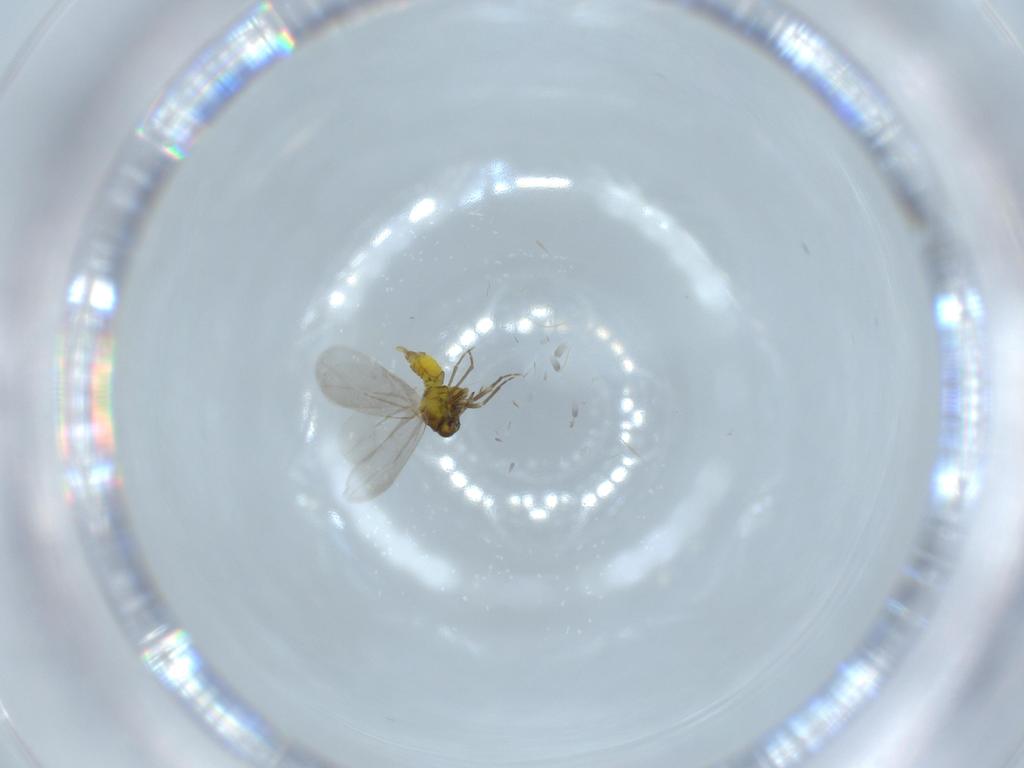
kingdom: Animalia
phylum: Arthropoda
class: Insecta
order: Hemiptera
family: Aleyrodidae
